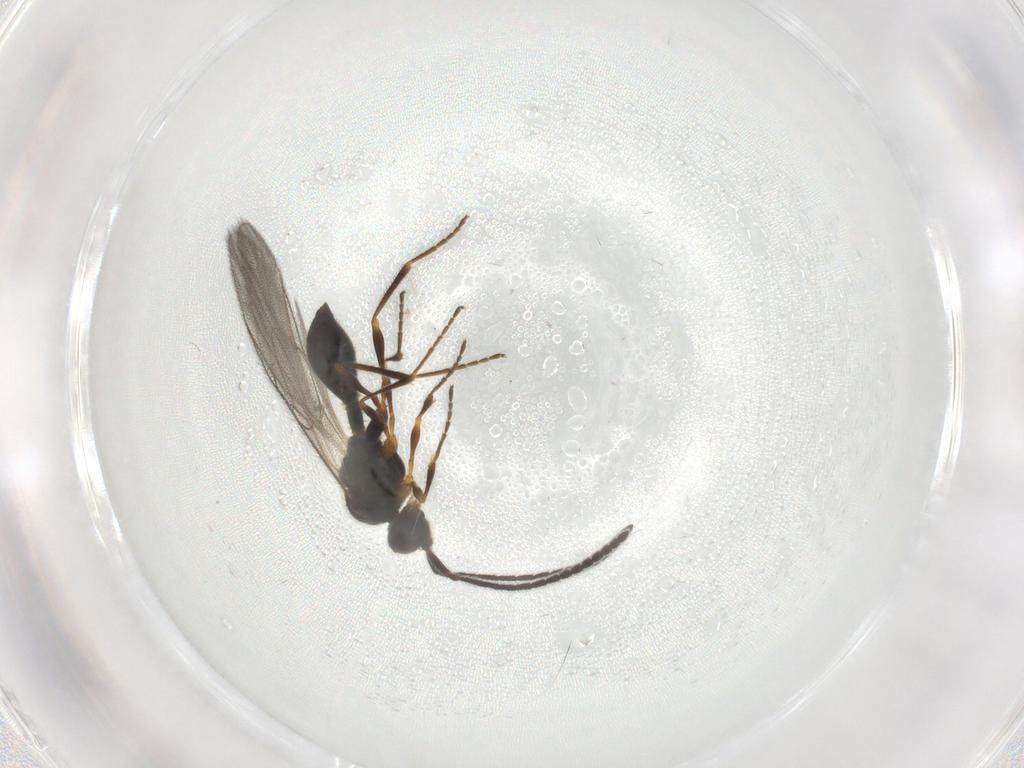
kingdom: Animalia
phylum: Arthropoda
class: Insecta
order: Hymenoptera
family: Diapriidae
